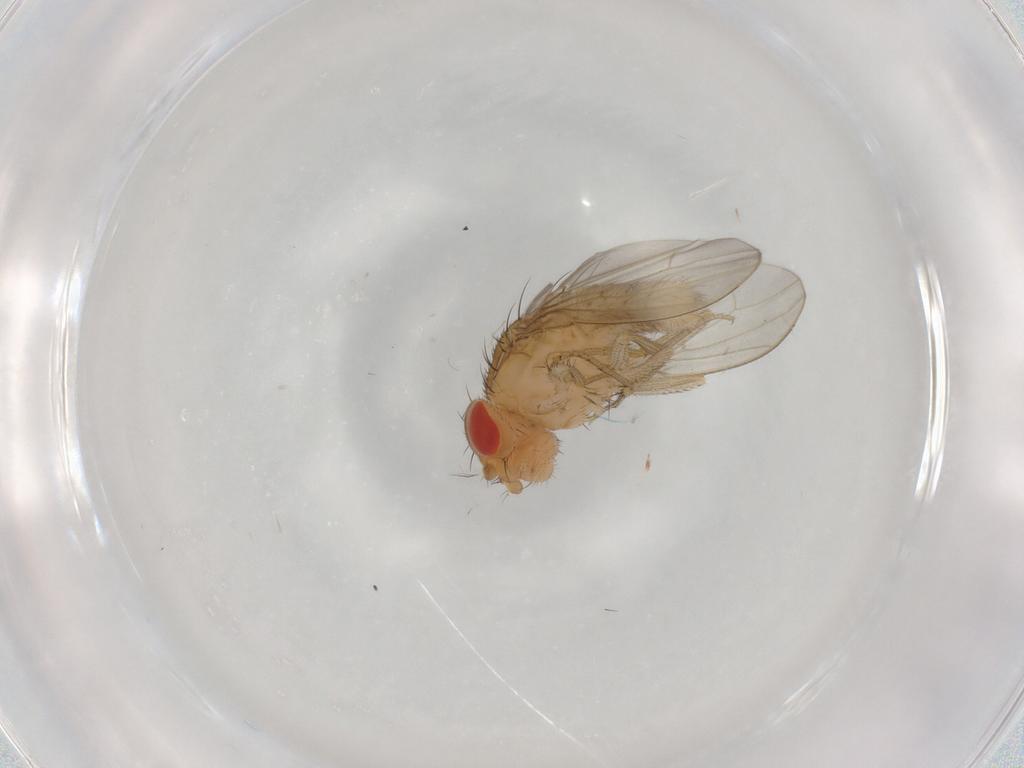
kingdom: Animalia
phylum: Arthropoda
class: Insecta
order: Diptera
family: Drosophilidae
